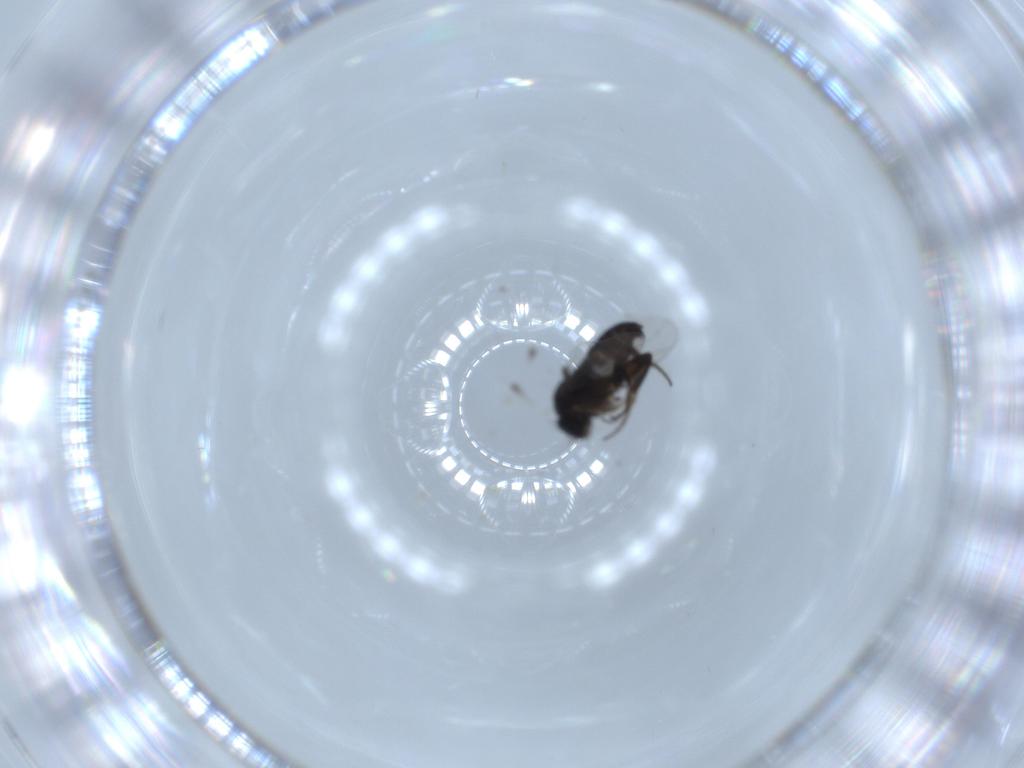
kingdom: Animalia
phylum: Arthropoda
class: Insecta
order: Diptera
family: Phoridae
